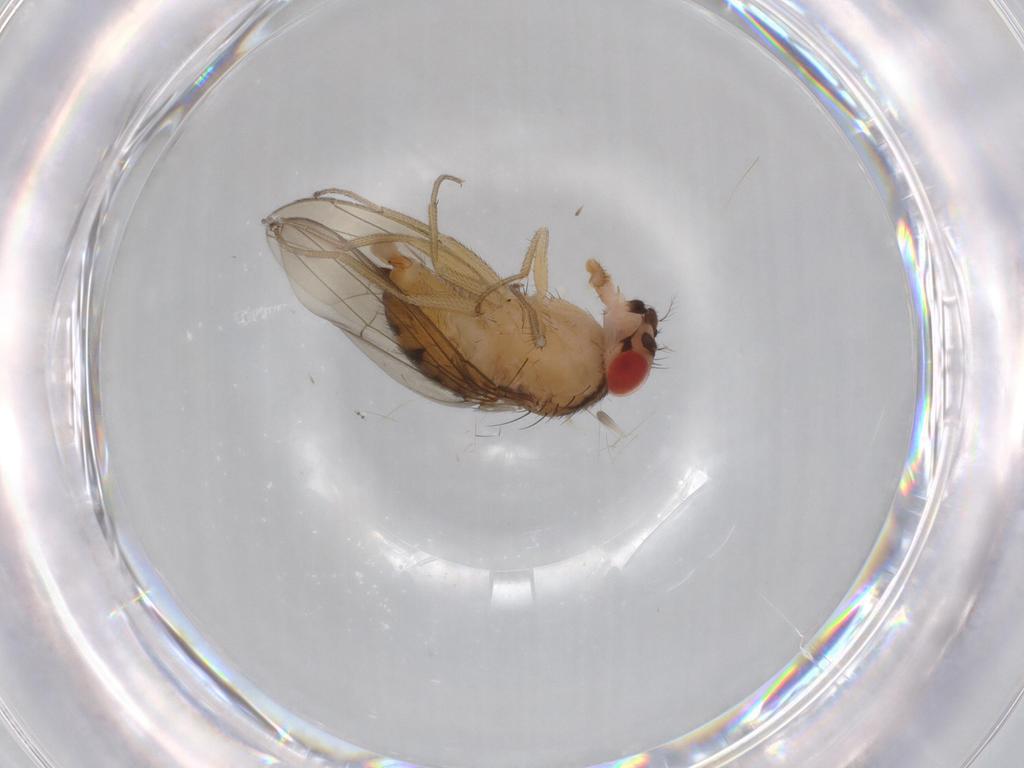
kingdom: Animalia
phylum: Arthropoda
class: Insecta
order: Diptera
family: Drosophilidae
